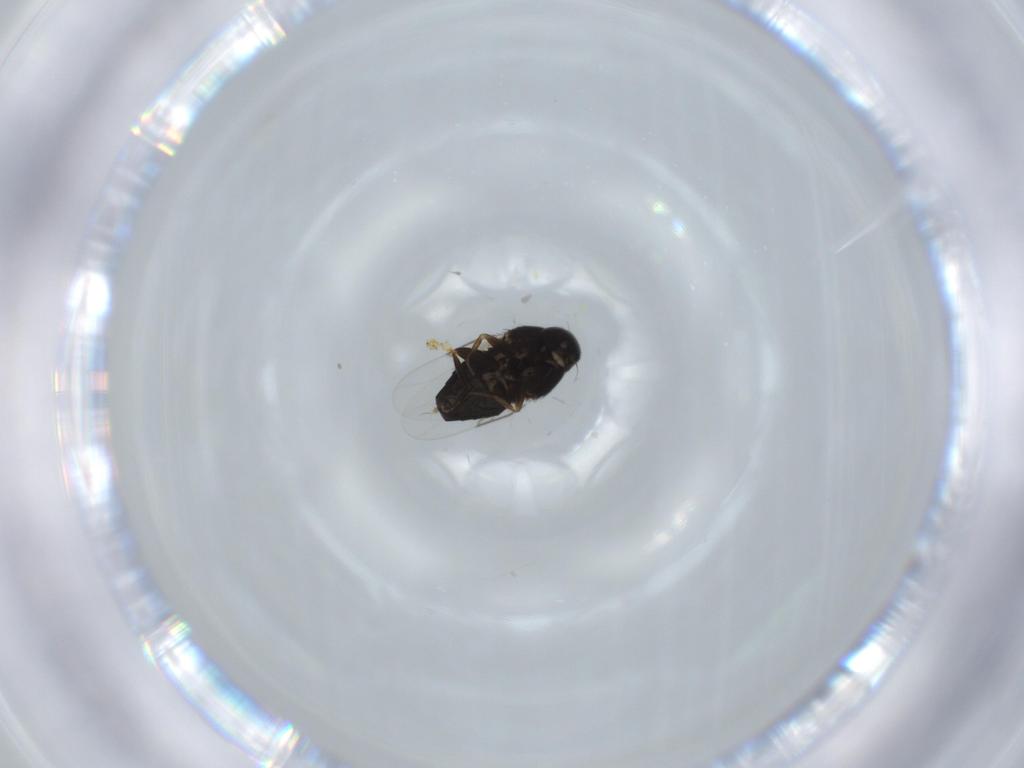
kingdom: Animalia
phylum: Arthropoda
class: Insecta
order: Diptera
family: Phoridae
